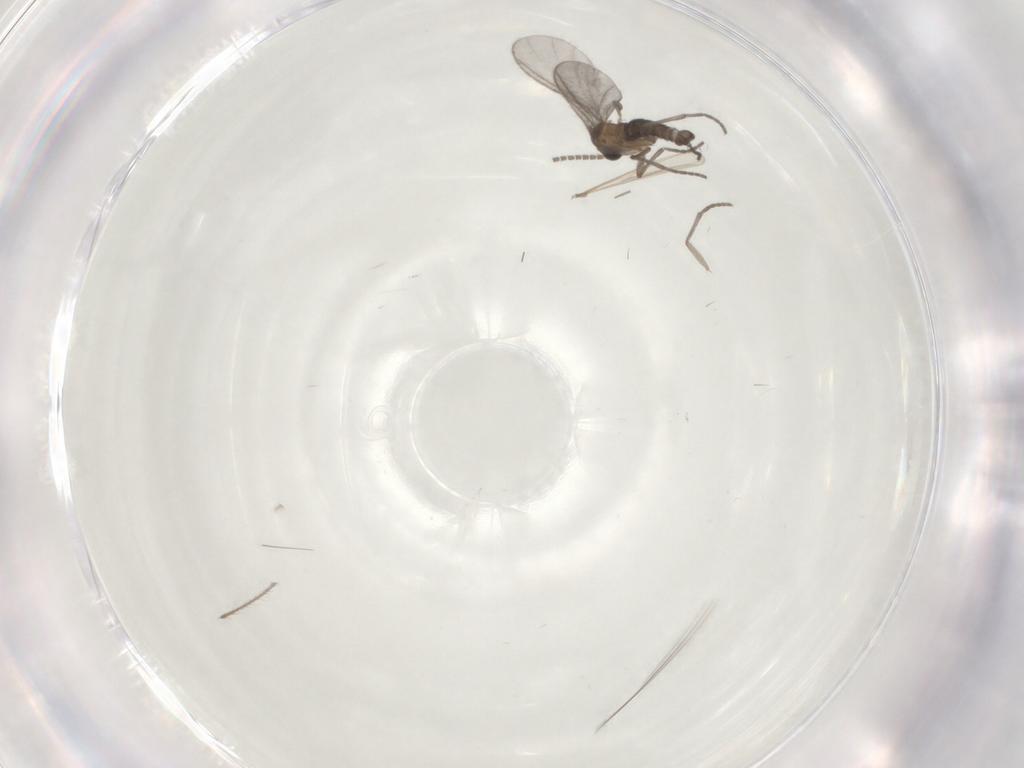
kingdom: Animalia
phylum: Arthropoda
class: Insecta
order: Diptera
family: Sciaridae
